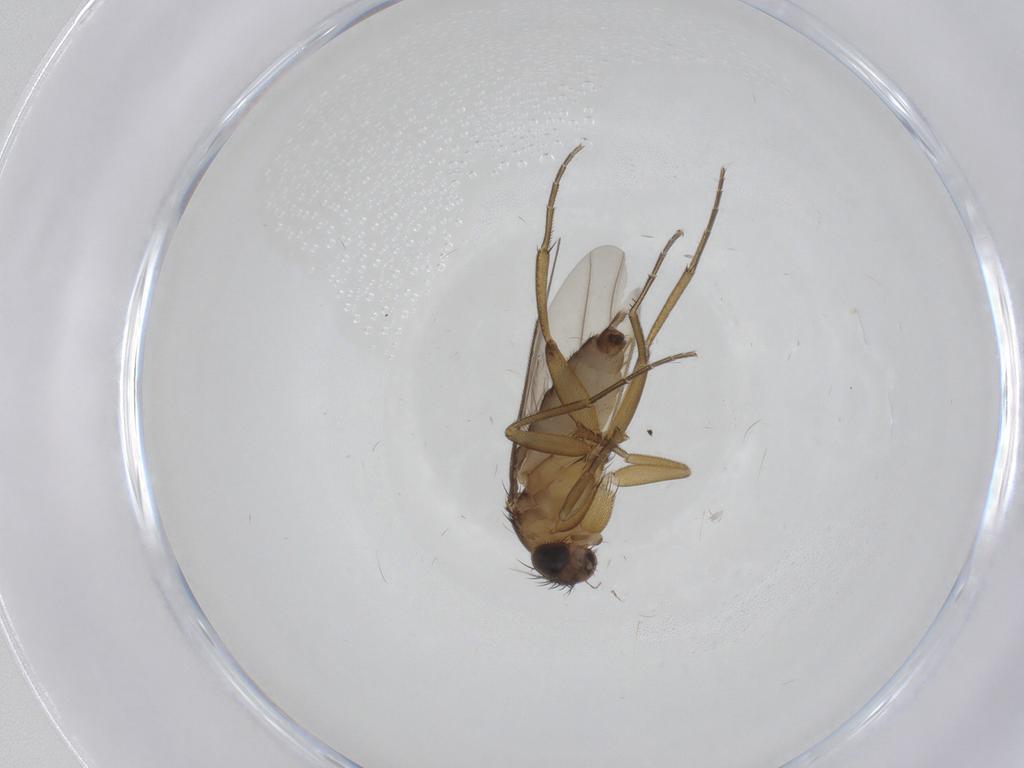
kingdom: Animalia
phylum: Arthropoda
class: Insecta
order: Diptera
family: Phoridae
